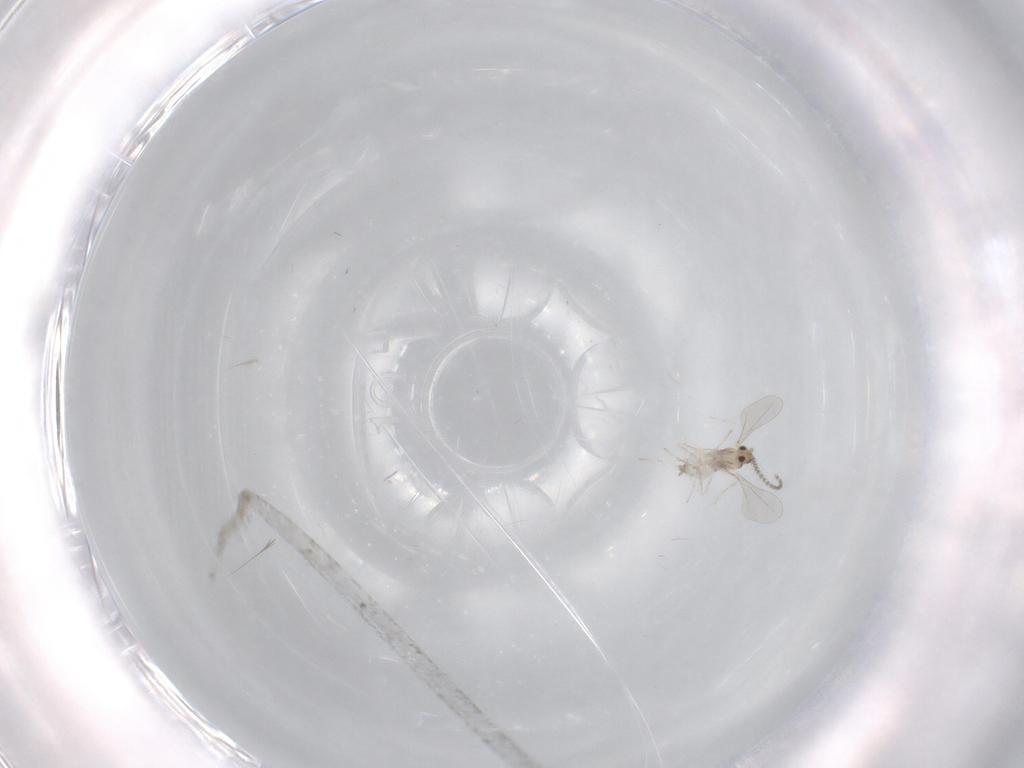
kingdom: Animalia
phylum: Arthropoda
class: Insecta
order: Diptera
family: Cecidomyiidae
